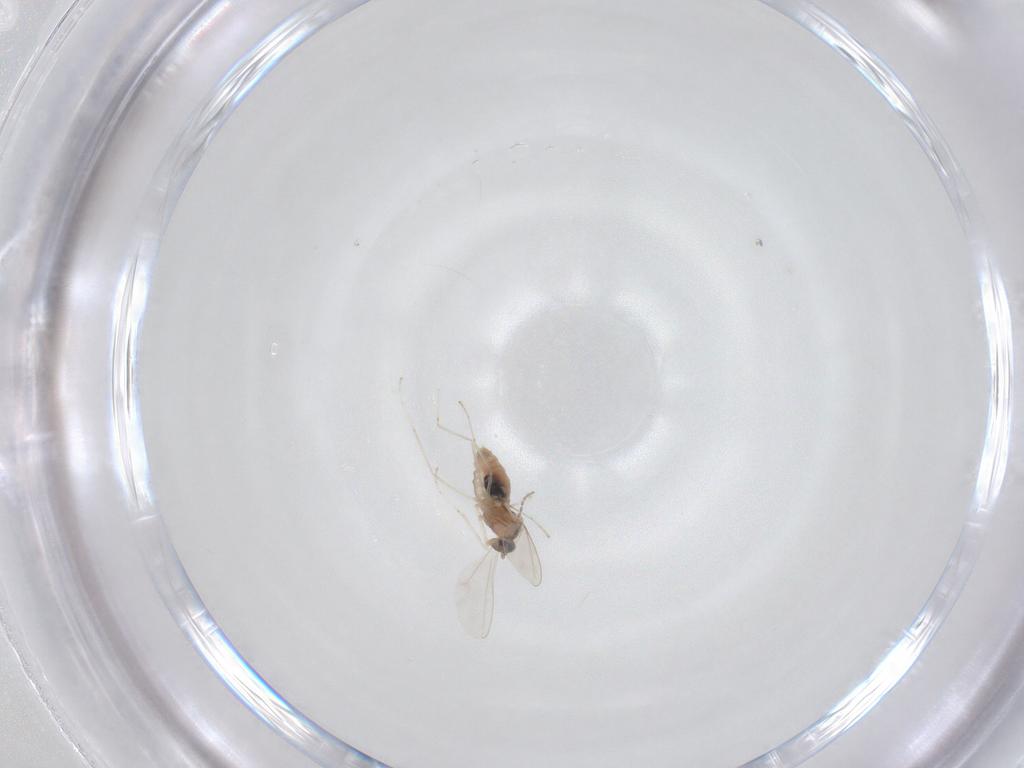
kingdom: Animalia
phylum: Arthropoda
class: Insecta
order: Diptera
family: Cecidomyiidae
